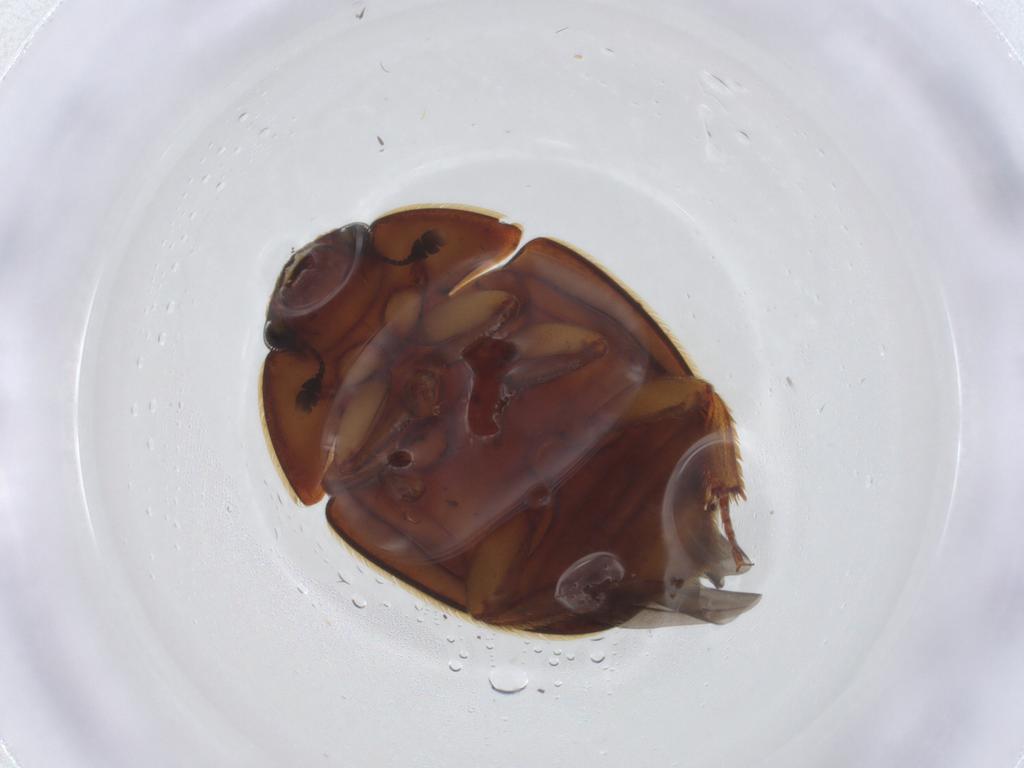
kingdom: Animalia
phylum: Arthropoda
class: Insecta
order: Coleoptera
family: Nitidulidae
